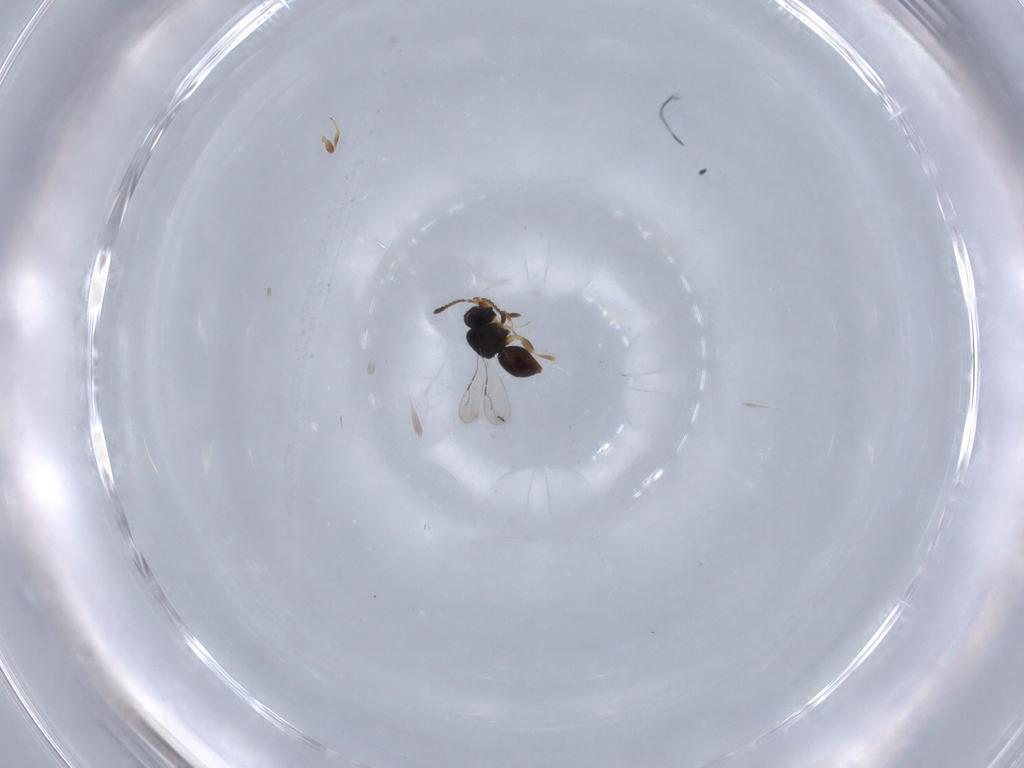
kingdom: Animalia
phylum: Arthropoda
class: Insecta
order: Hymenoptera
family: Ceraphronidae
